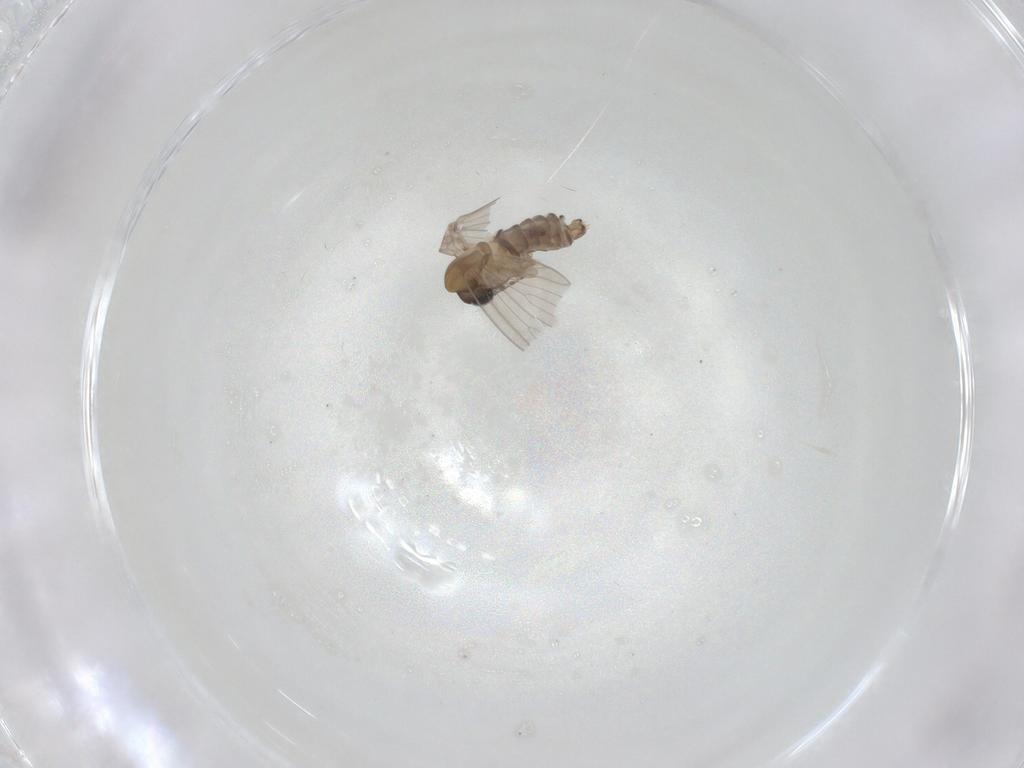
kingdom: Animalia
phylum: Arthropoda
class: Insecta
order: Diptera
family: Psychodidae
